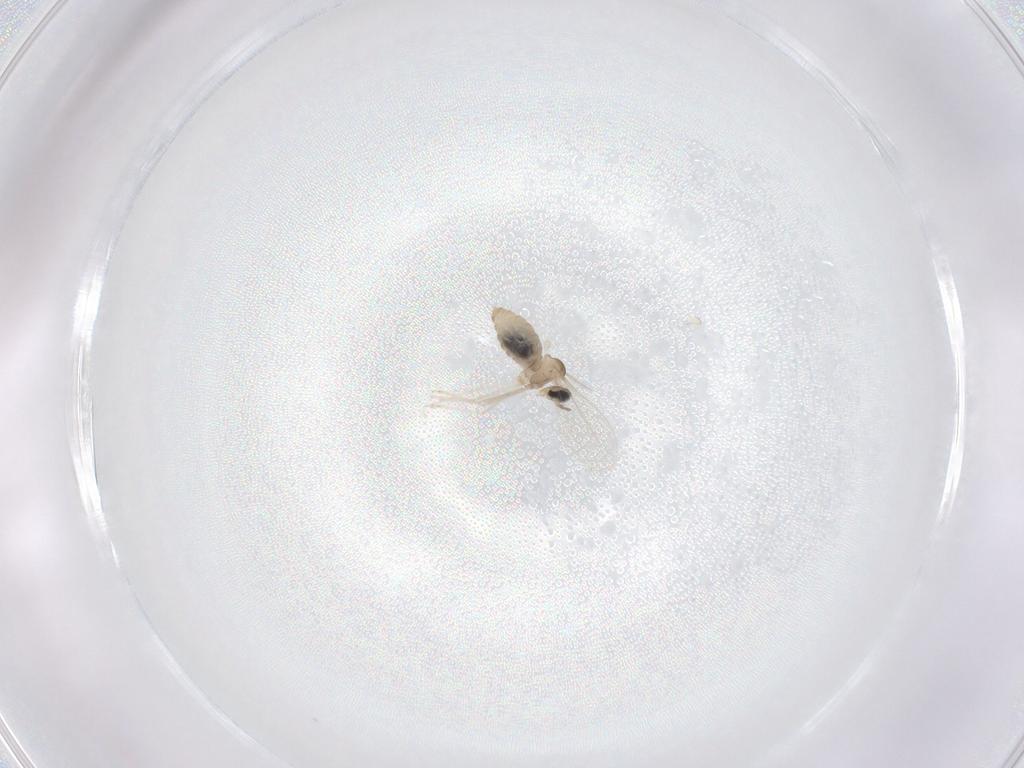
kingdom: Animalia
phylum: Arthropoda
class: Insecta
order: Diptera
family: Cecidomyiidae
